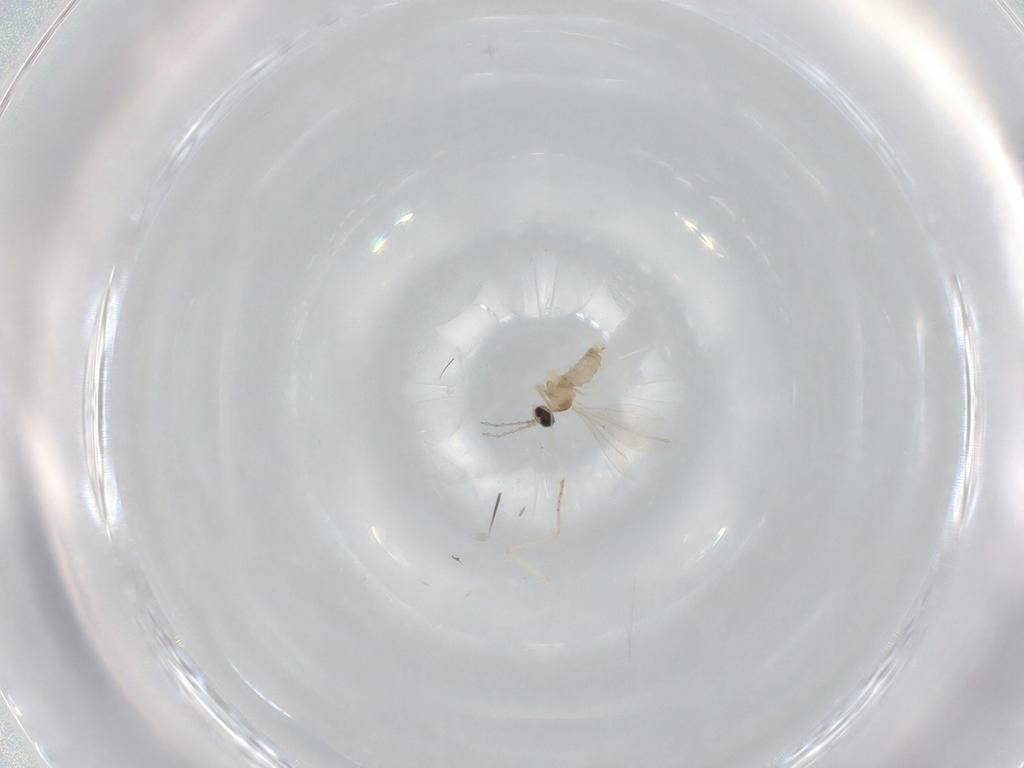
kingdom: Animalia
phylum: Arthropoda
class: Insecta
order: Diptera
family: Cecidomyiidae
